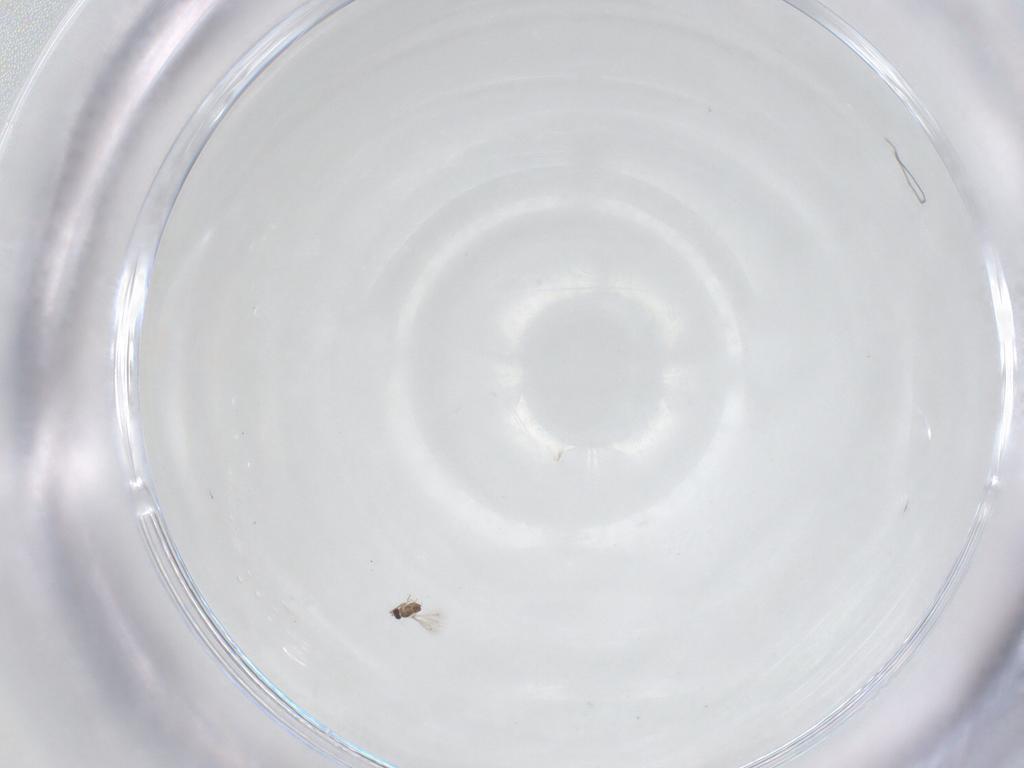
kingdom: Animalia
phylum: Arthropoda
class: Insecta
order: Hymenoptera
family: Mymaridae
